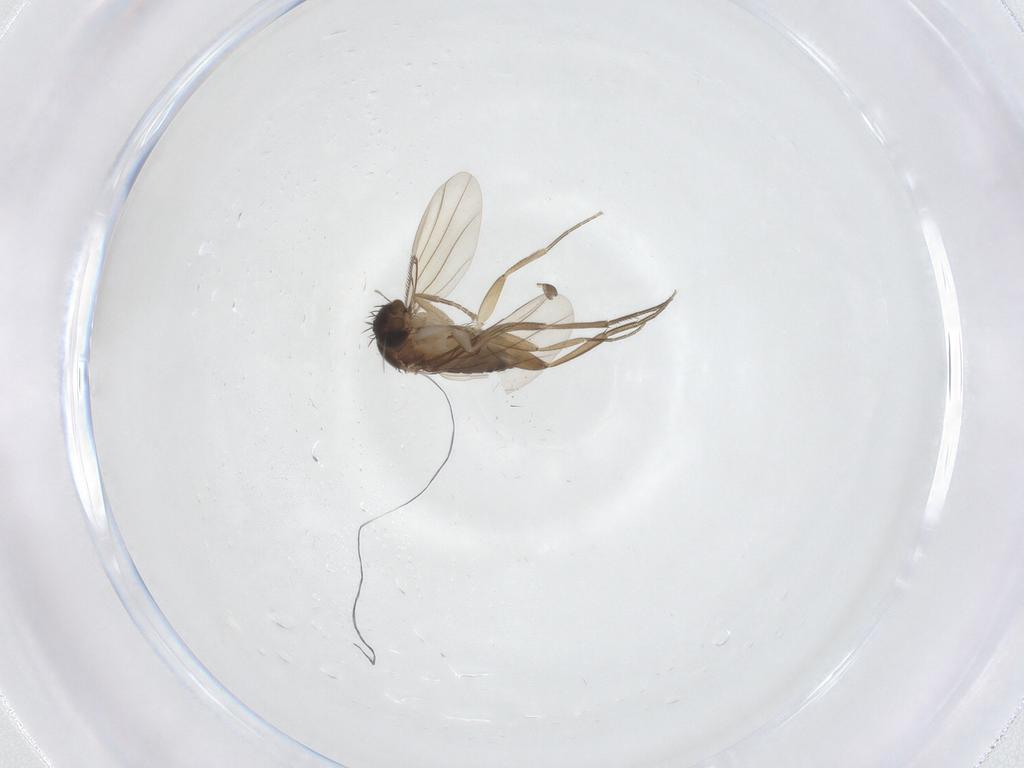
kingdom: Animalia
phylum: Arthropoda
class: Insecta
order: Diptera
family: Phoridae
